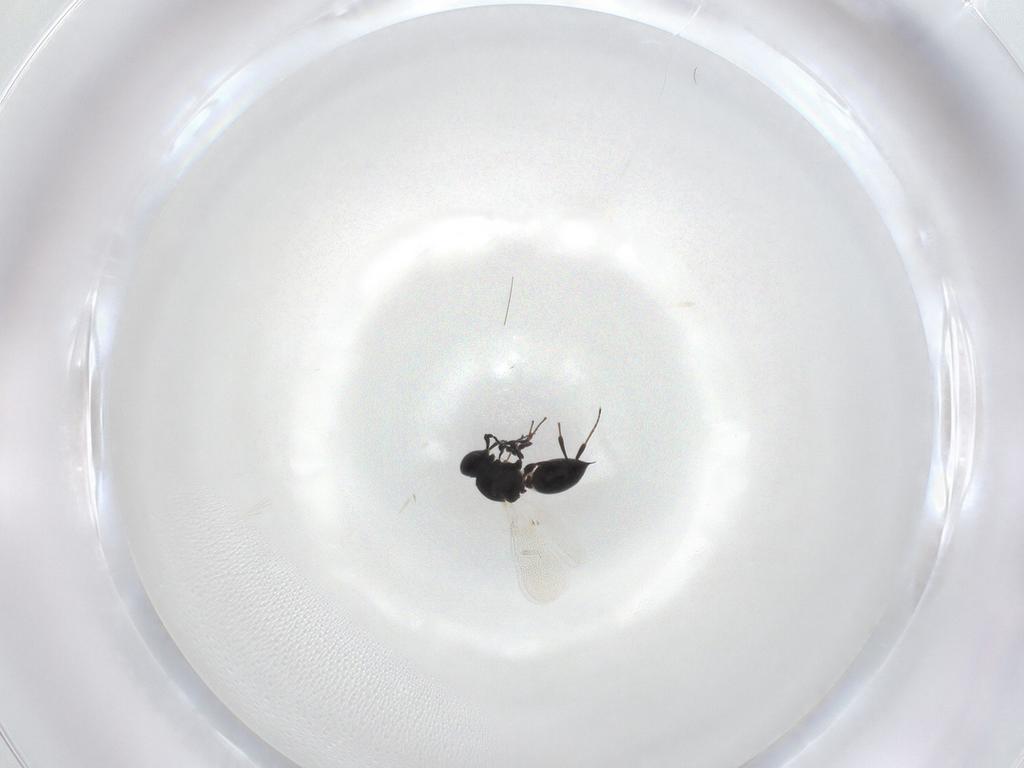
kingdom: Animalia
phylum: Arthropoda
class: Insecta
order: Hymenoptera
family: Platygastridae
